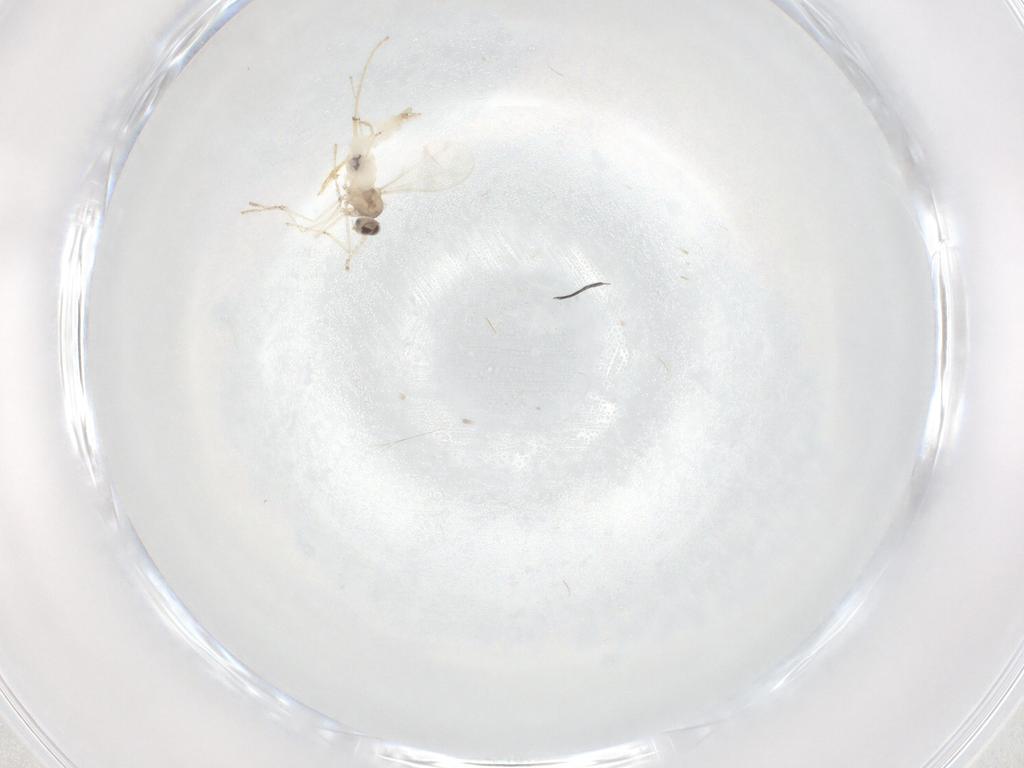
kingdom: Animalia
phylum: Arthropoda
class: Insecta
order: Diptera
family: Cecidomyiidae
